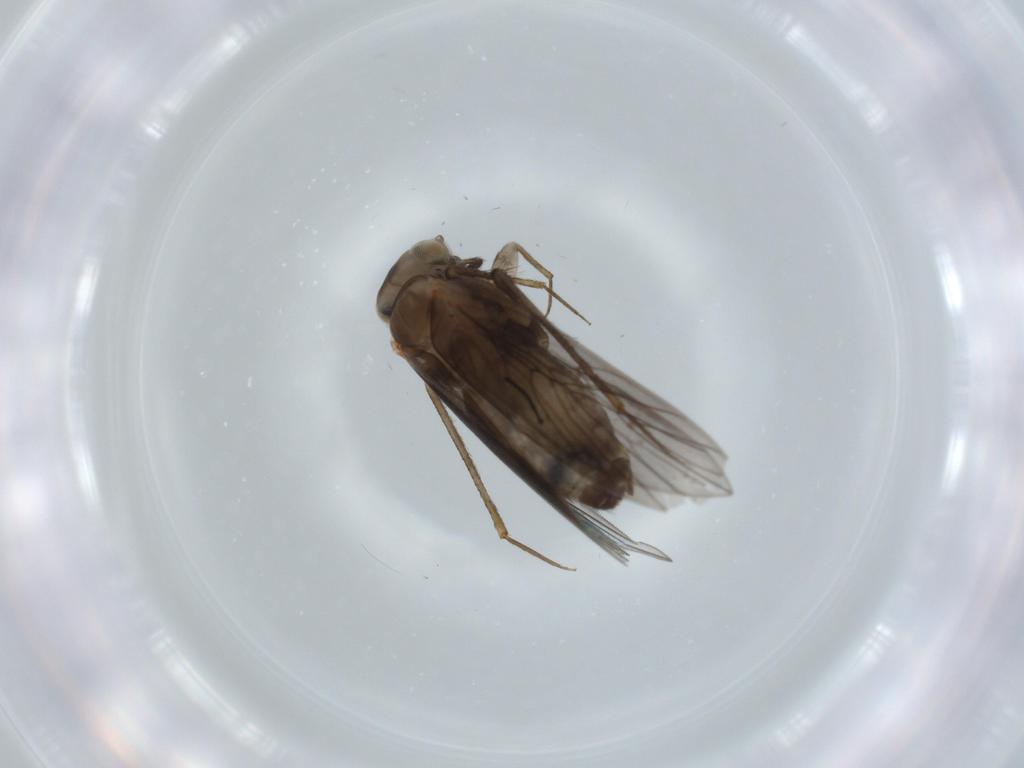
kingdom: Animalia
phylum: Arthropoda
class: Insecta
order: Psocodea
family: Lepidopsocidae
